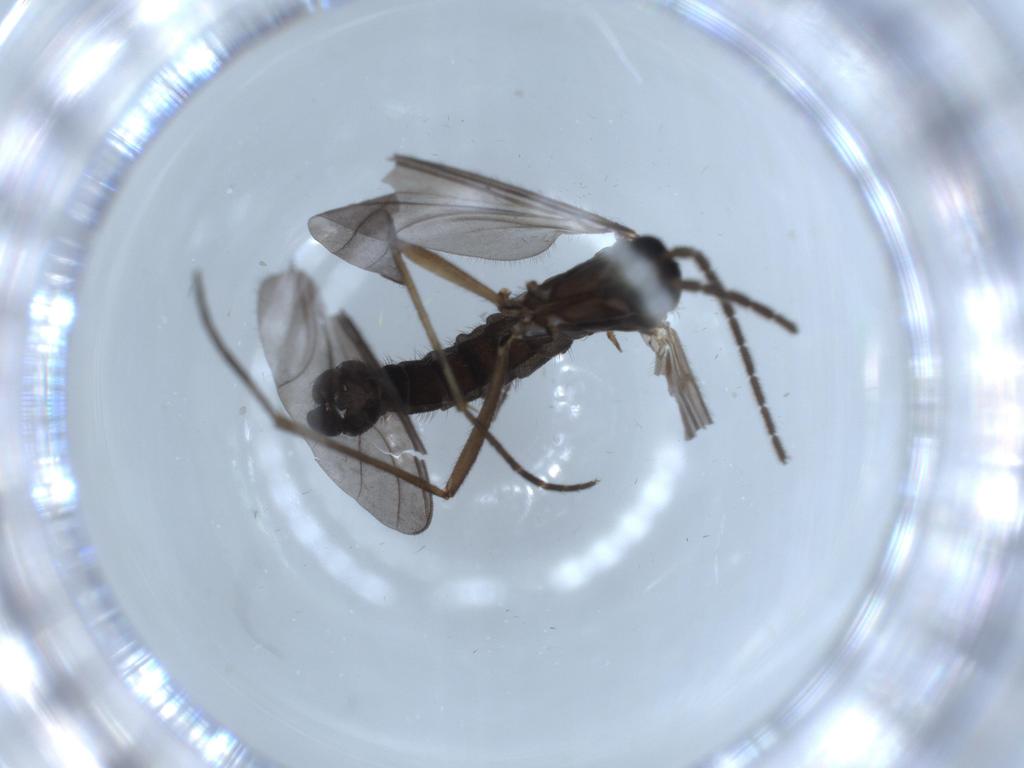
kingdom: Animalia
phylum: Arthropoda
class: Insecta
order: Diptera
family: Sciaridae
